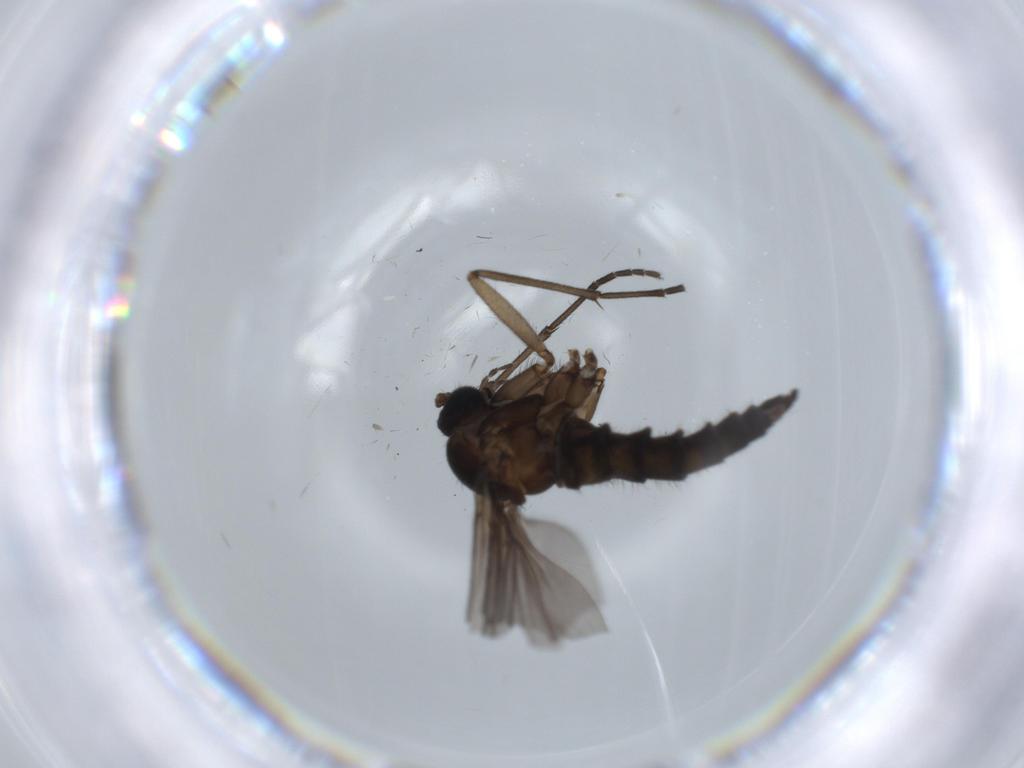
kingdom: Animalia
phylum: Arthropoda
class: Insecta
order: Diptera
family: Sciaridae
